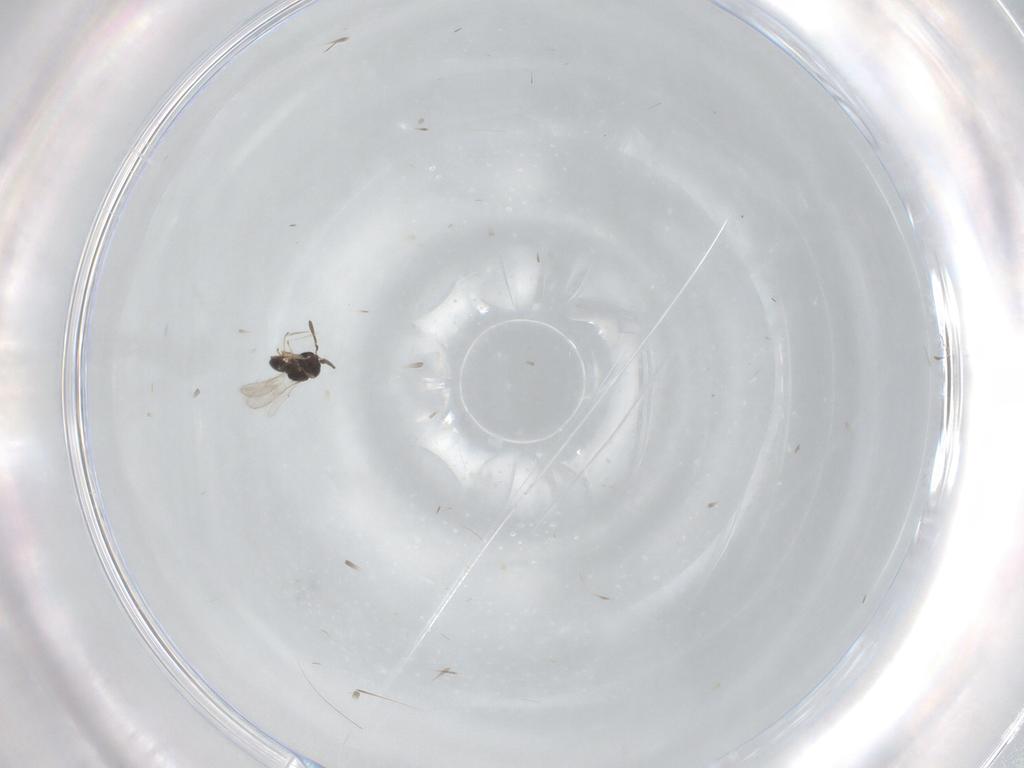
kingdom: Animalia
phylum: Arthropoda
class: Insecta
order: Hymenoptera
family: Scelionidae
